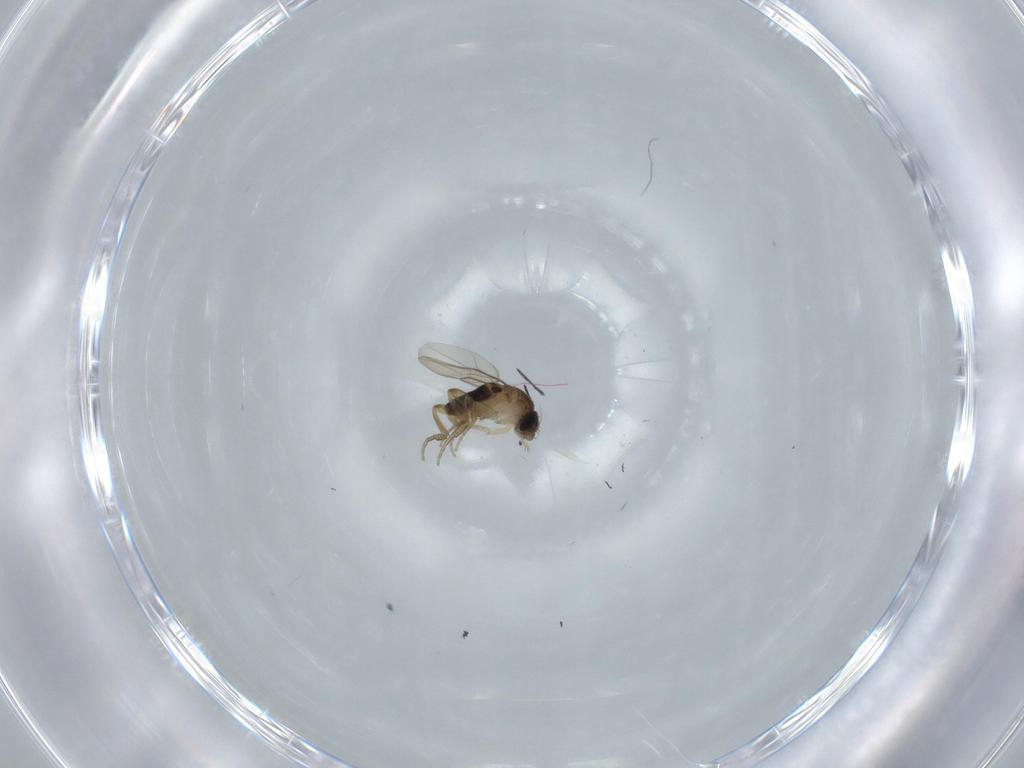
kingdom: Animalia
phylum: Arthropoda
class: Insecta
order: Diptera
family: Phoridae
